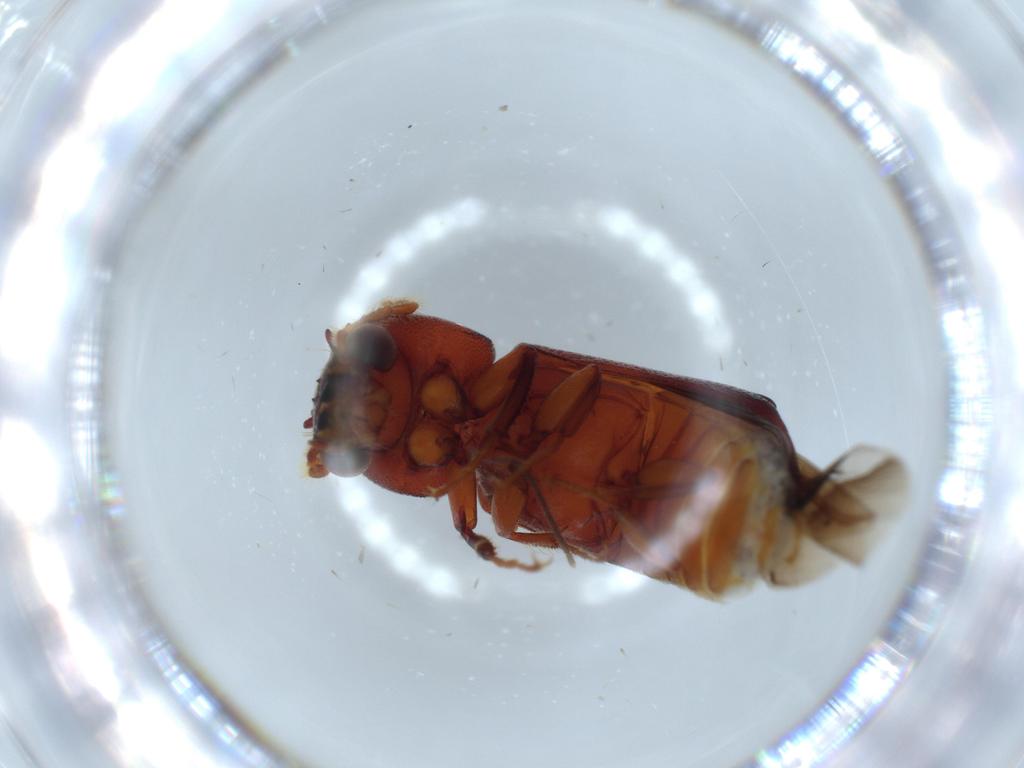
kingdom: Animalia
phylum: Arthropoda
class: Insecta
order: Coleoptera
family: Bostrichidae
